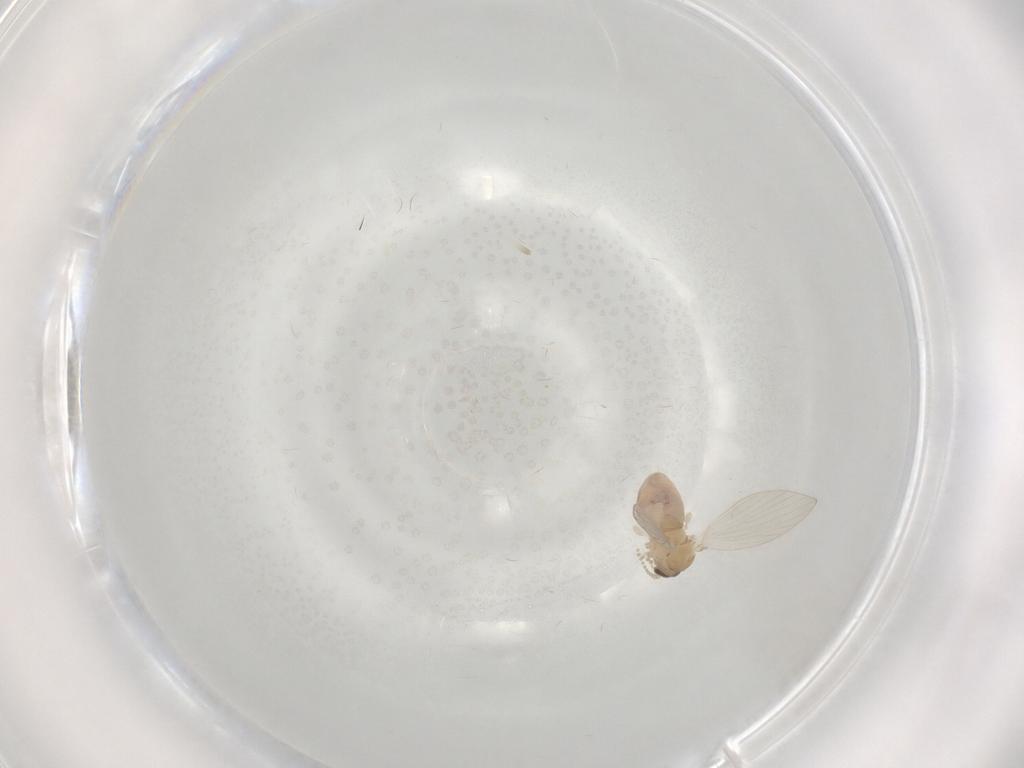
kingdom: Animalia
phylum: Arthropoda
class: Insecta
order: Diptera
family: Psychodidae
